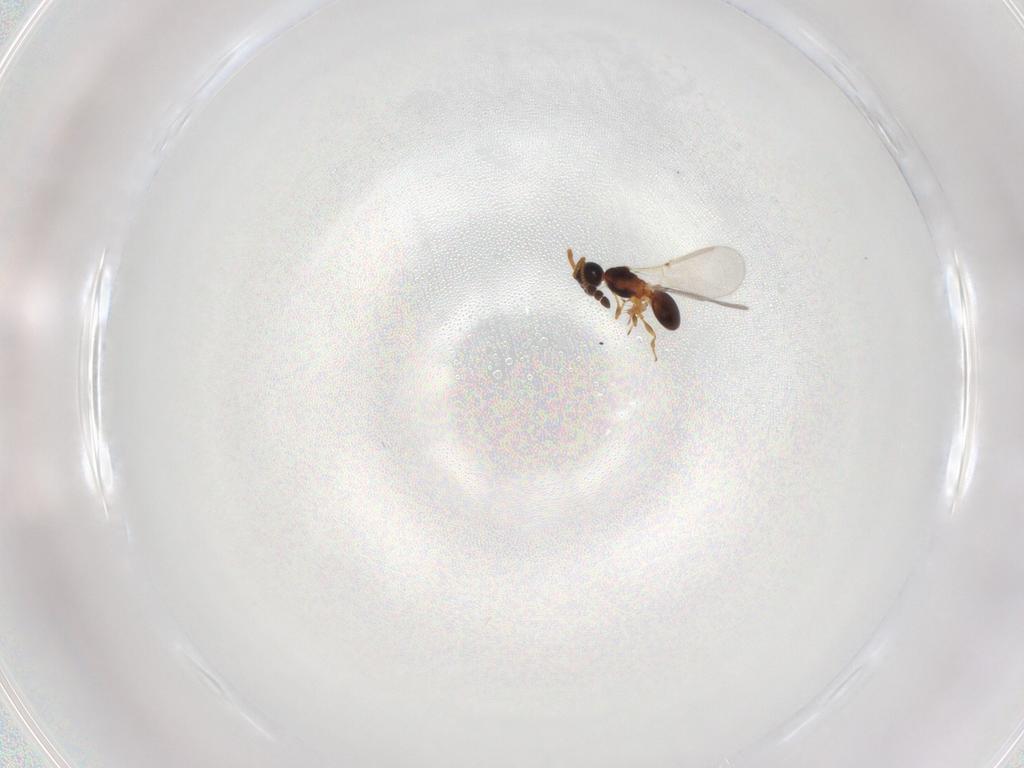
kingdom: Animalia
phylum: Arthropoda
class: Insecta
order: Hymenoptera
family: Diapriidae
